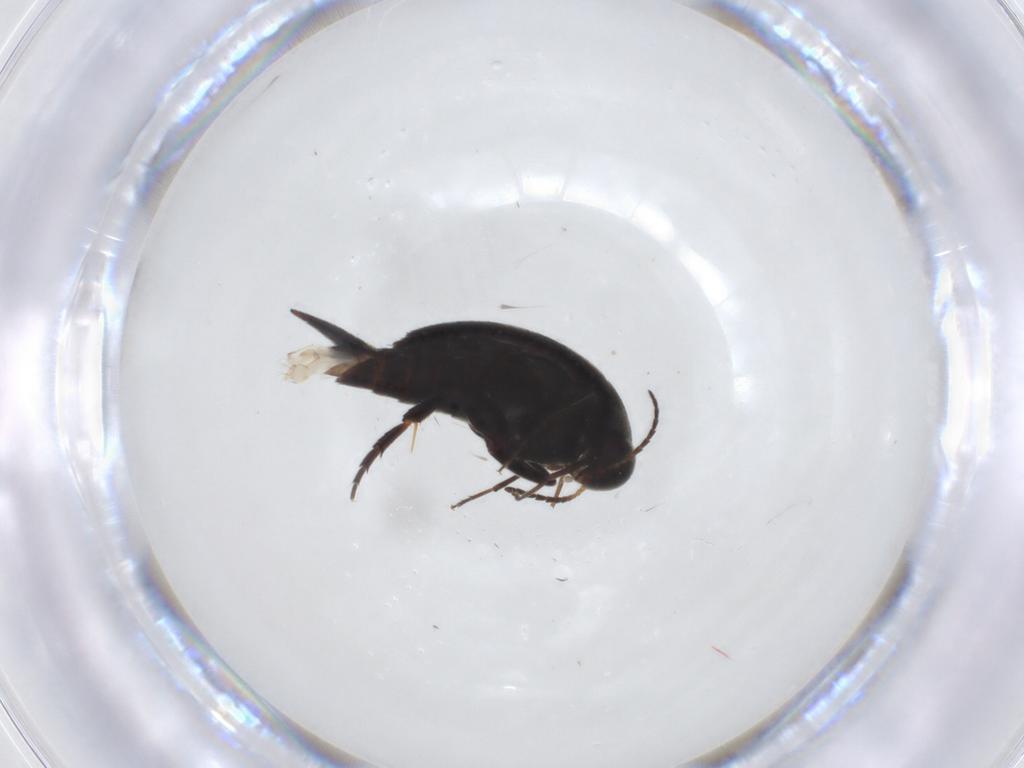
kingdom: Animalia
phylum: Arthropoda
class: Insecta
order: Coleoptera
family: Mordellidae
